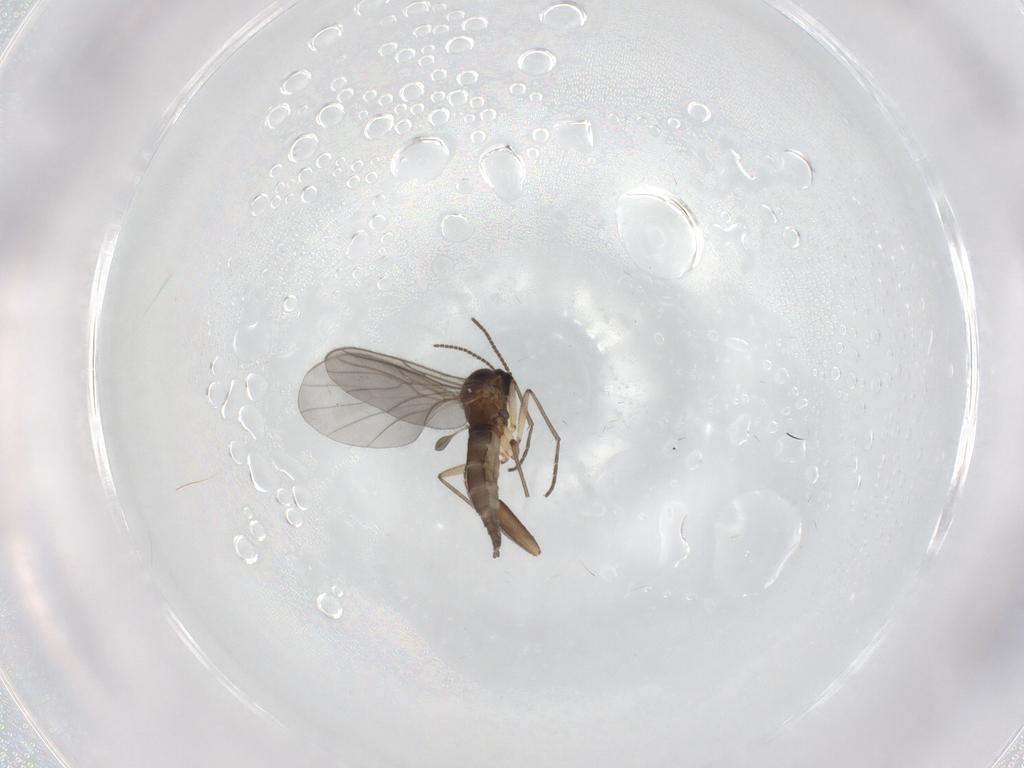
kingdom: Animalia
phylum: Arthropoda
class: Insecta
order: Diptera
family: Sciaridae
